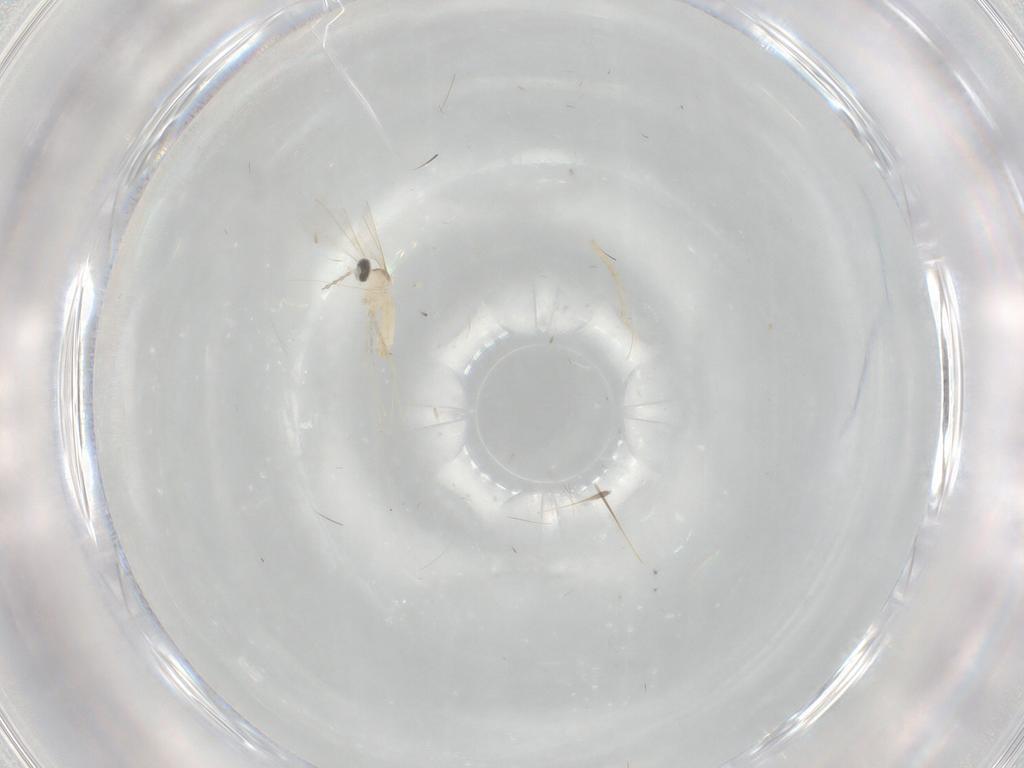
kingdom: Animalia
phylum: Arthropoda
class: Insecta
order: Diptera
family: Cecidomyiidae
